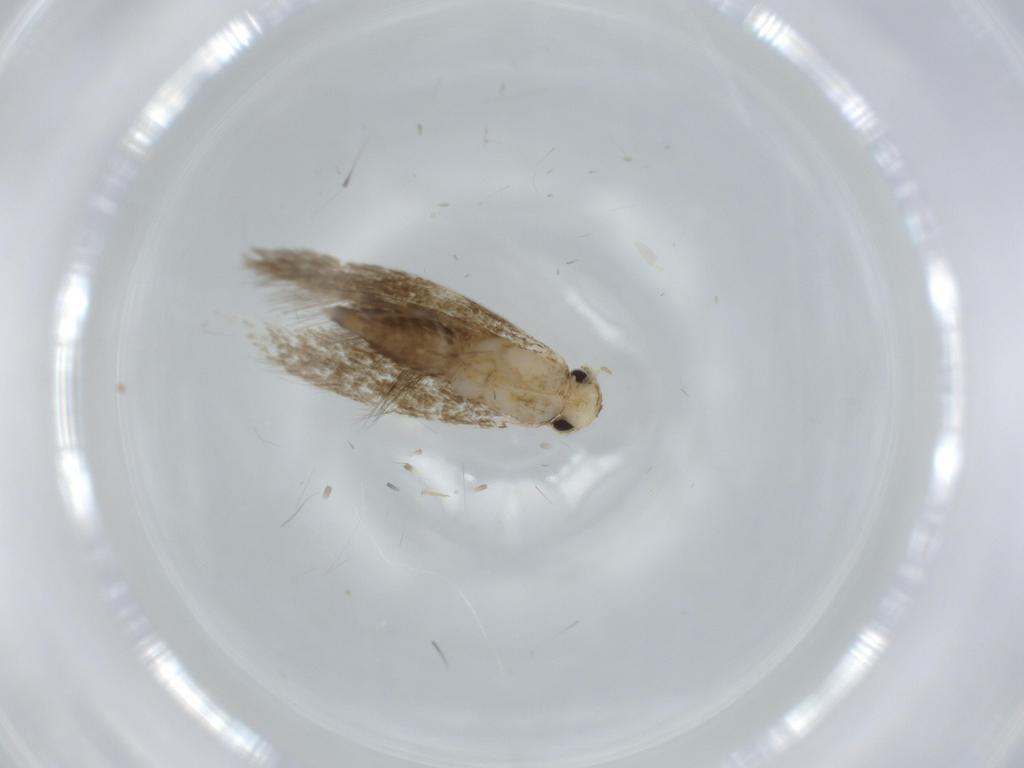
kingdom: Animalia
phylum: Arthropoda
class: Insecta
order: Lepidoptera
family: Tineidae
